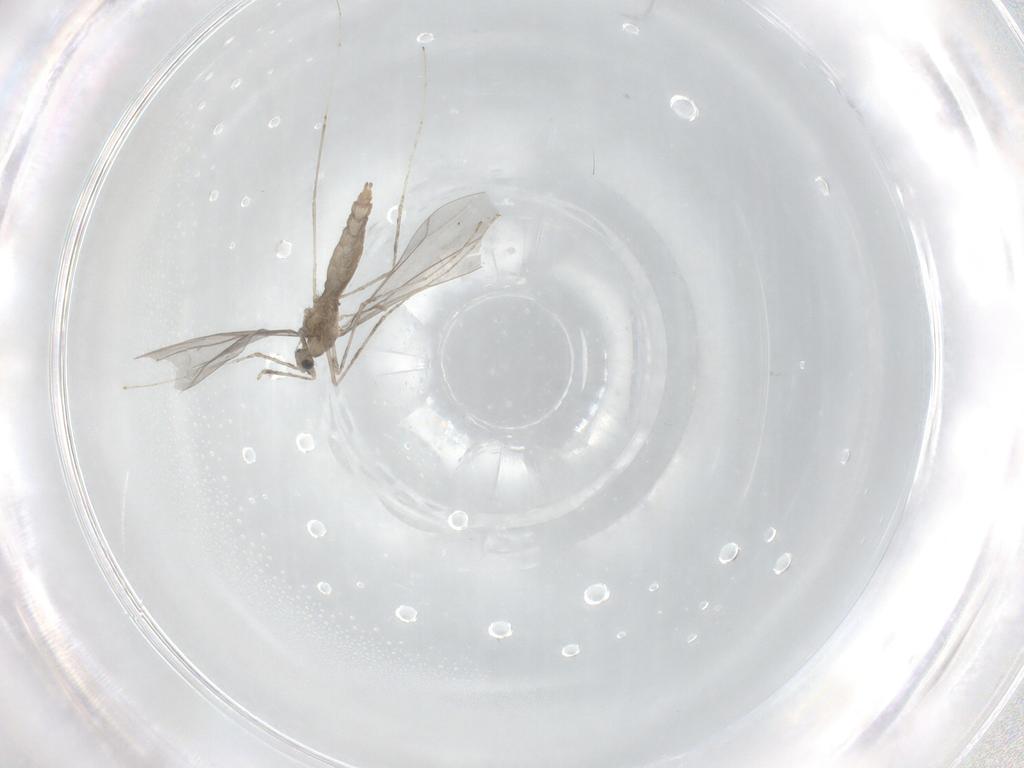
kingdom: Animalia
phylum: Arthropoda
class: Insecta
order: Diptera
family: Cecidomyiidae
